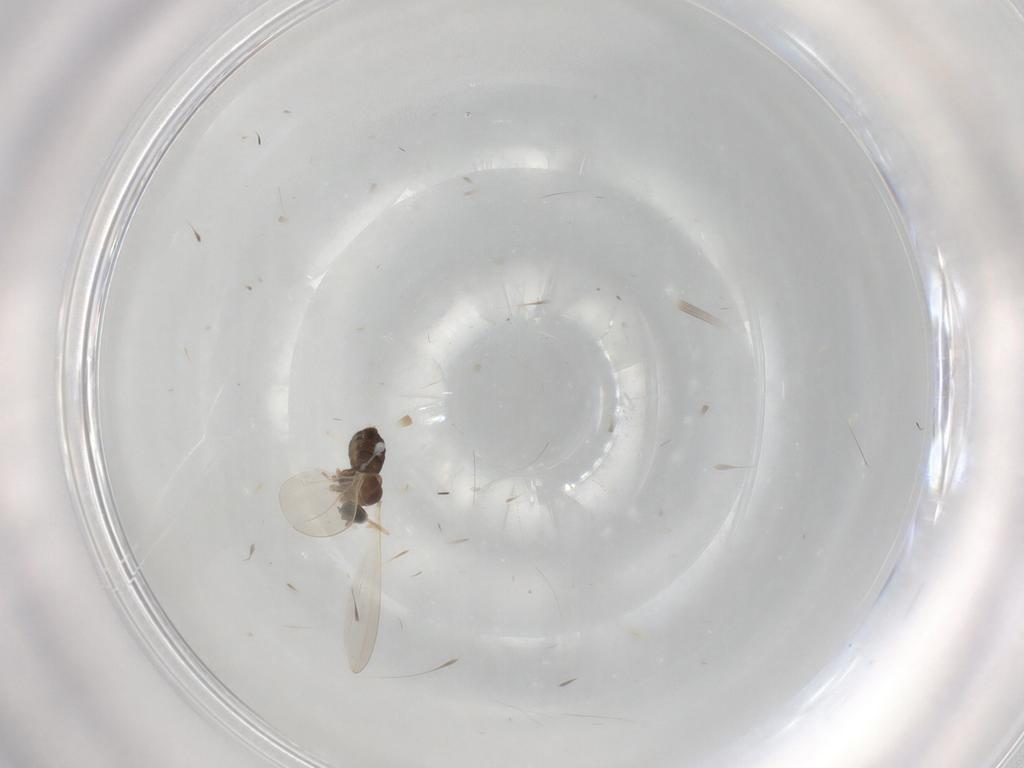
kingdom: Animalia
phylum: Arthropoda
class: Insecta
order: Diptera
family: Cecidomyiidae
